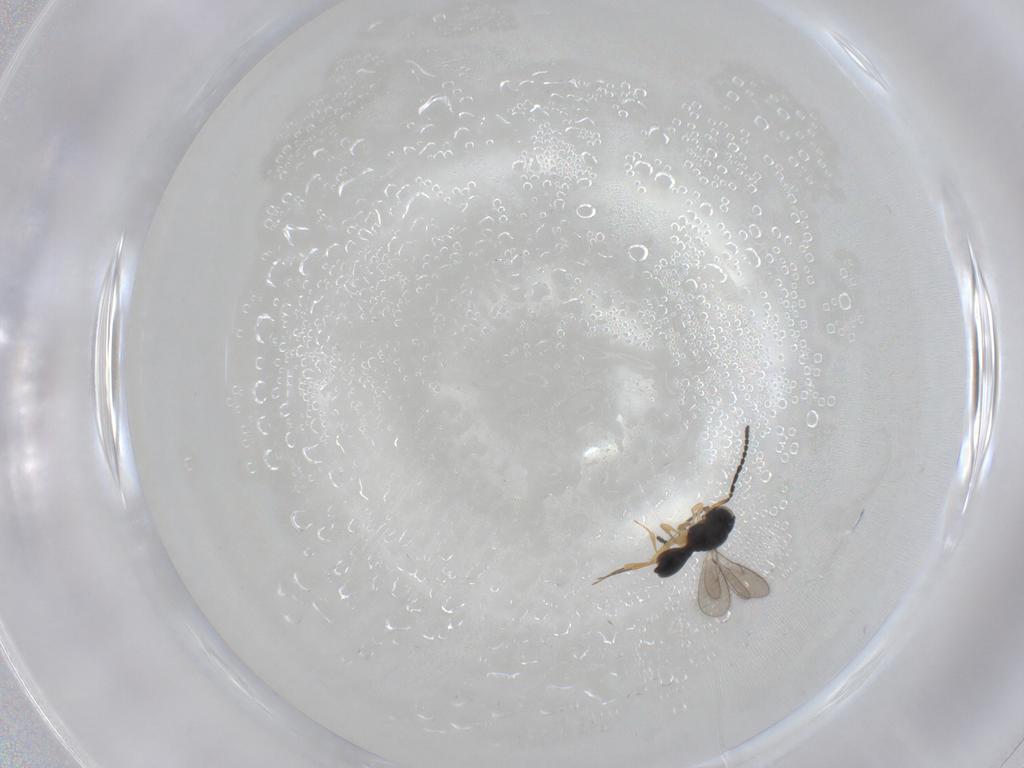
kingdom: Animalia
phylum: Arthropoda
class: Insecta
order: Hymenoptera
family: Scelionidae
